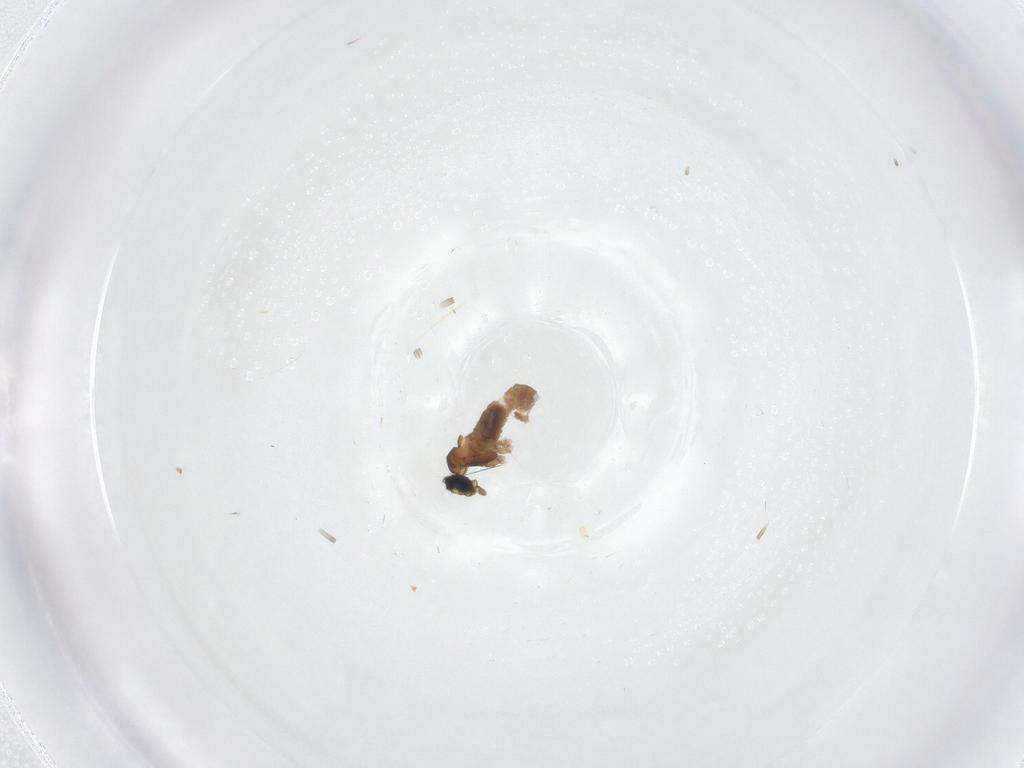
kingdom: Animalia
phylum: Arthropoda
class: Insecta
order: Diptera
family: Cecidomyiidae
